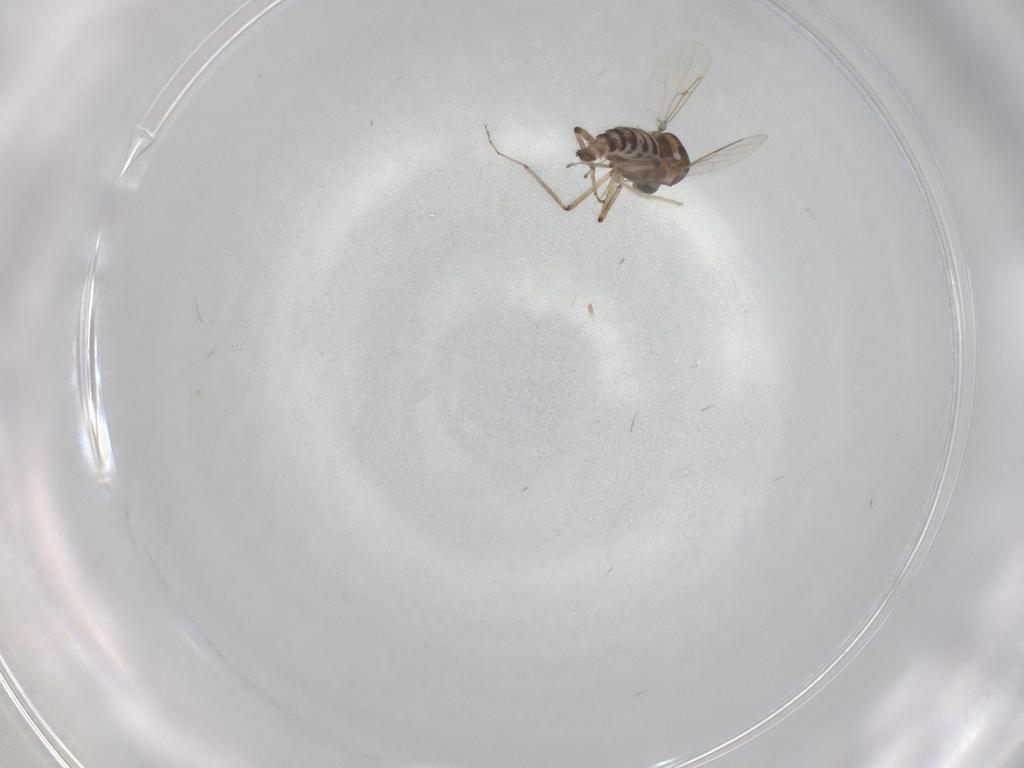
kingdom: Animalia
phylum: Arthropoda
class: Insecta
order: Diptera
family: Ceratopogonidae
